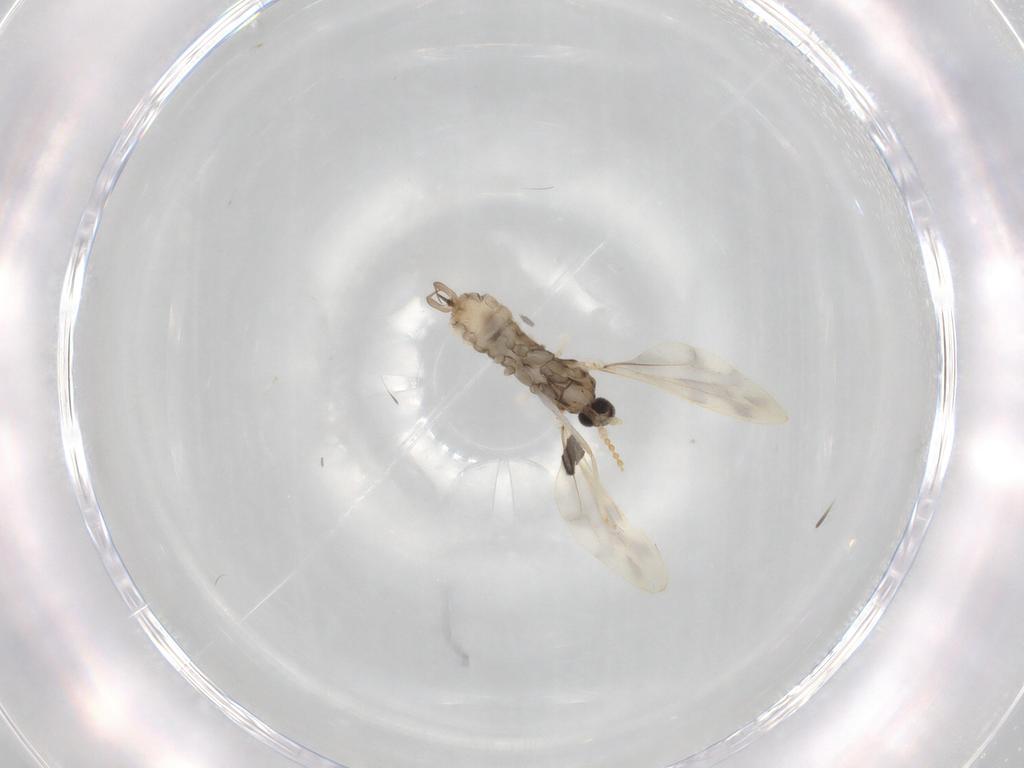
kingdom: Animalia
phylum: Arthropoda
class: Insecta
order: Diptera
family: Cecidomyiidae
